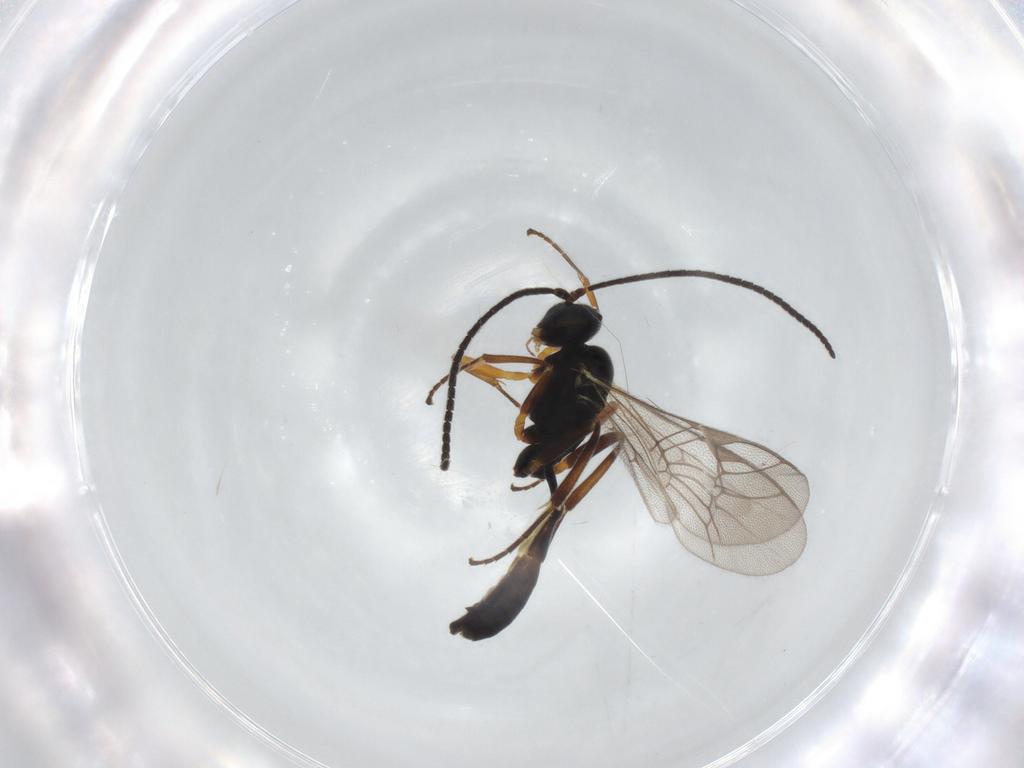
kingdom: Animalia
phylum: Arthropoda
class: Insecta
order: Hymenoptera
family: Ichneumonidae
